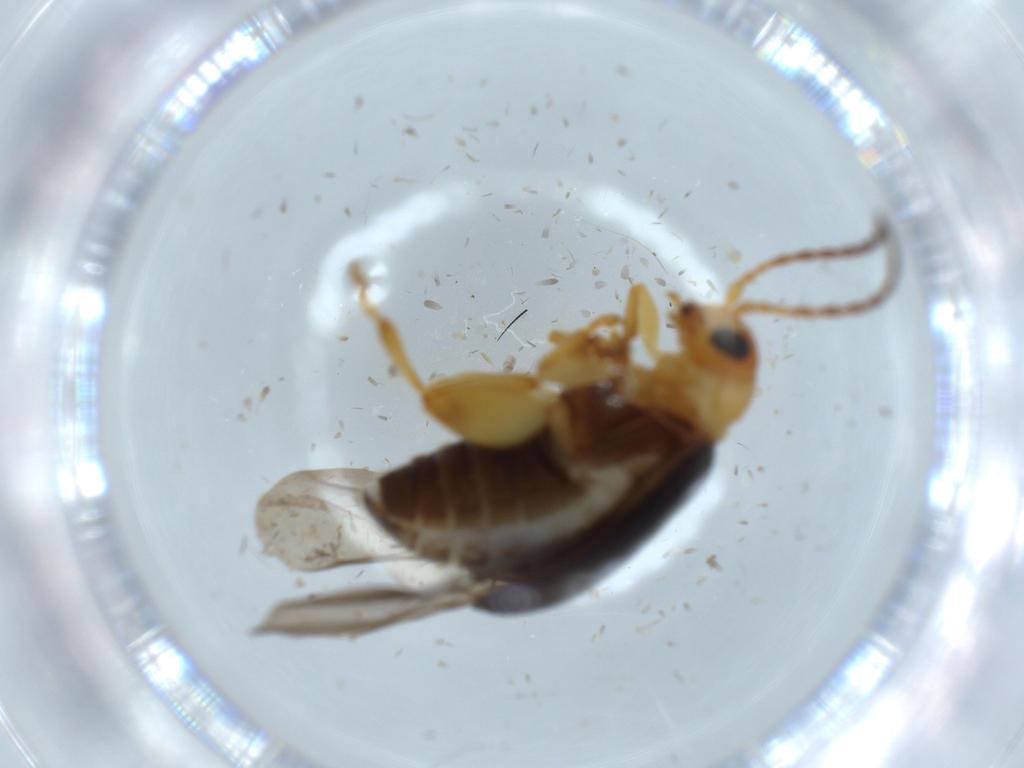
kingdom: Animalia
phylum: Arthropoda
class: Insecta
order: Coleoptera
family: Chrysomelidae
